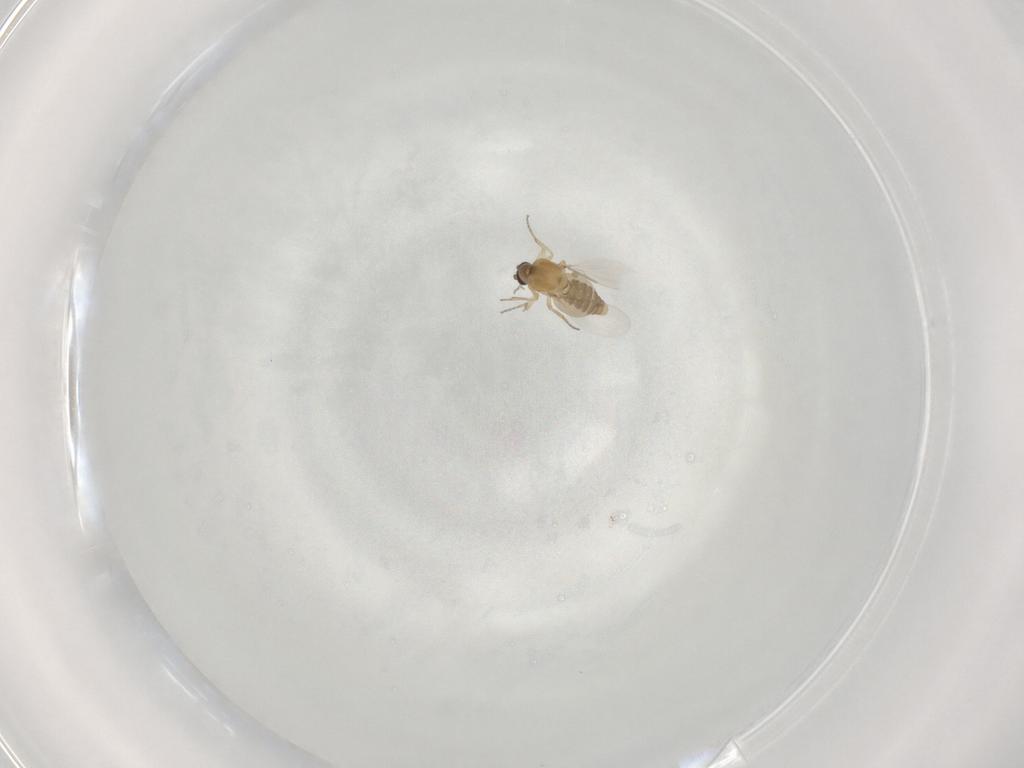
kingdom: Animalia
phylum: Arthropoda
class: Insecta
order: Diptera
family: Ceratopogonidae
